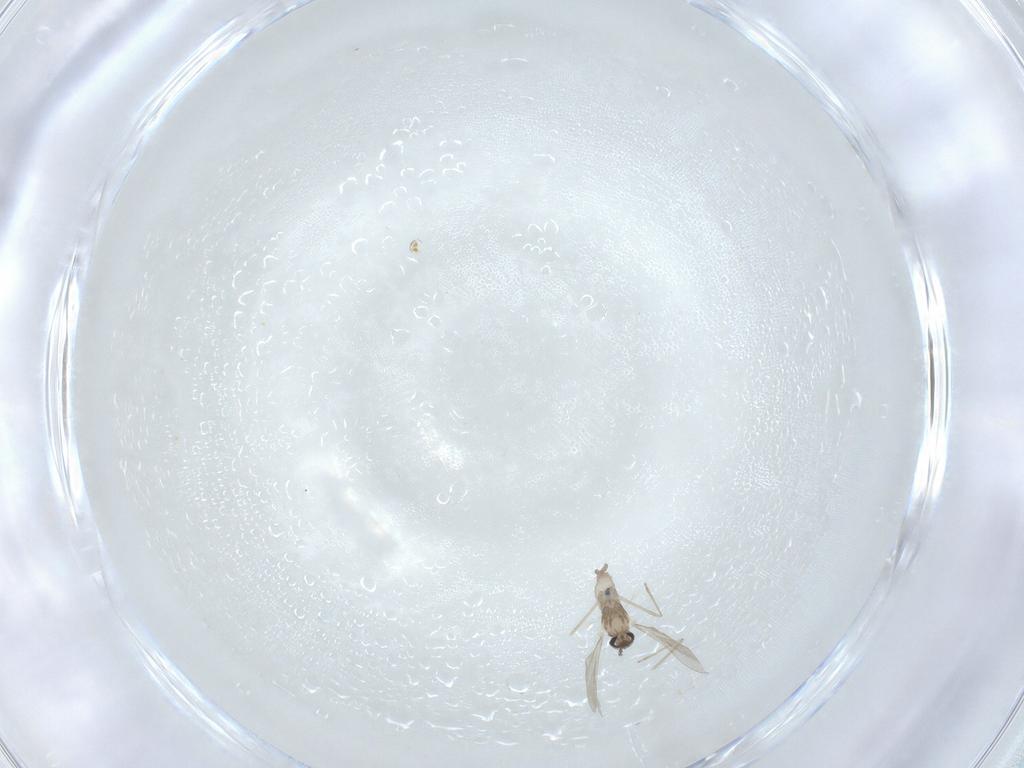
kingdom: Animalia
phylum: Arthropoda
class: Insecta
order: Diptera
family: Cecidomyiidae
